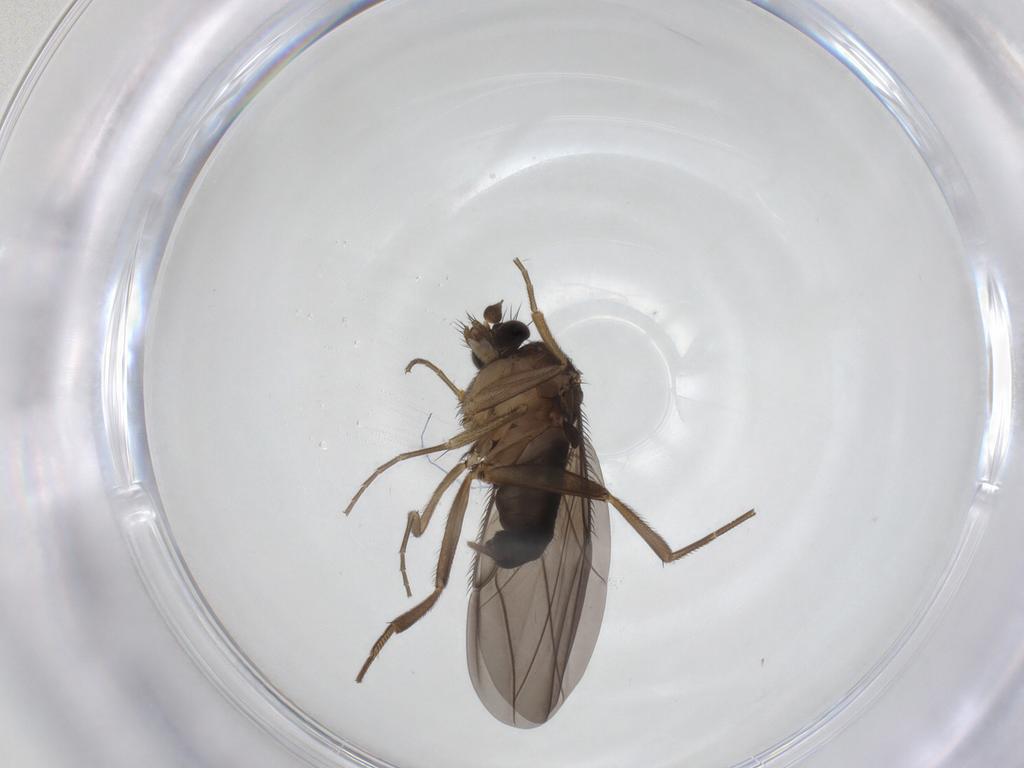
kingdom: Animalia
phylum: Arthropoda
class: Insecta
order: Diptera
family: Phoridae
